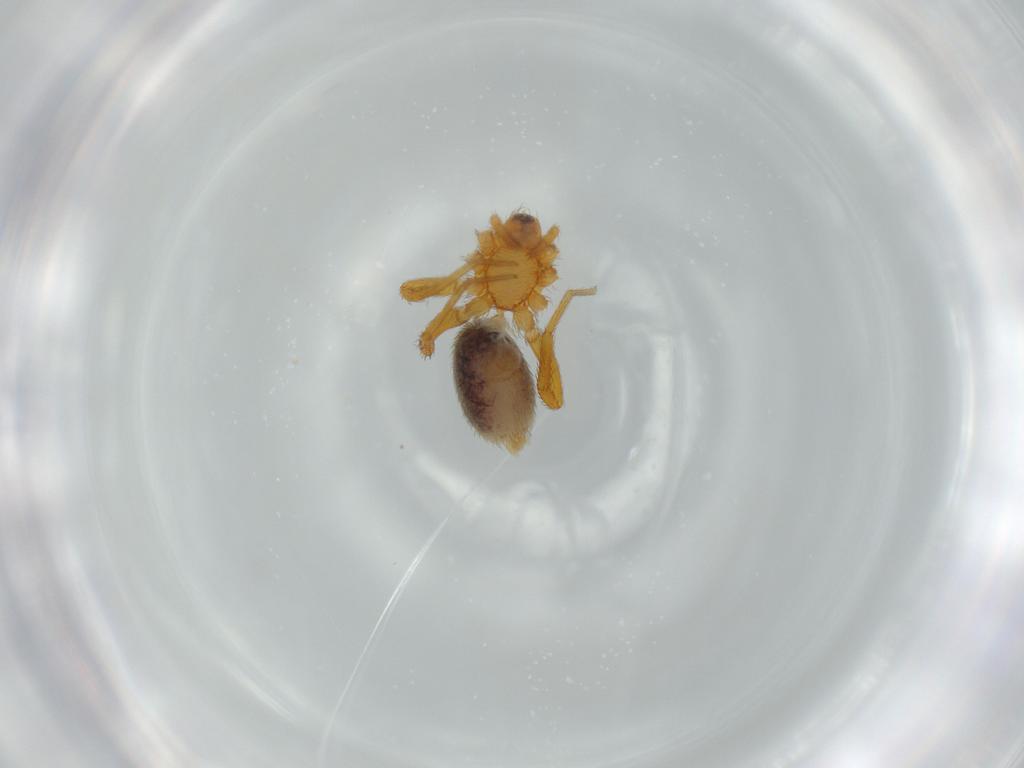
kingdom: Animalia
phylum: Arthropoda
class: Arachnida
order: Araneae
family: Oonopidae
